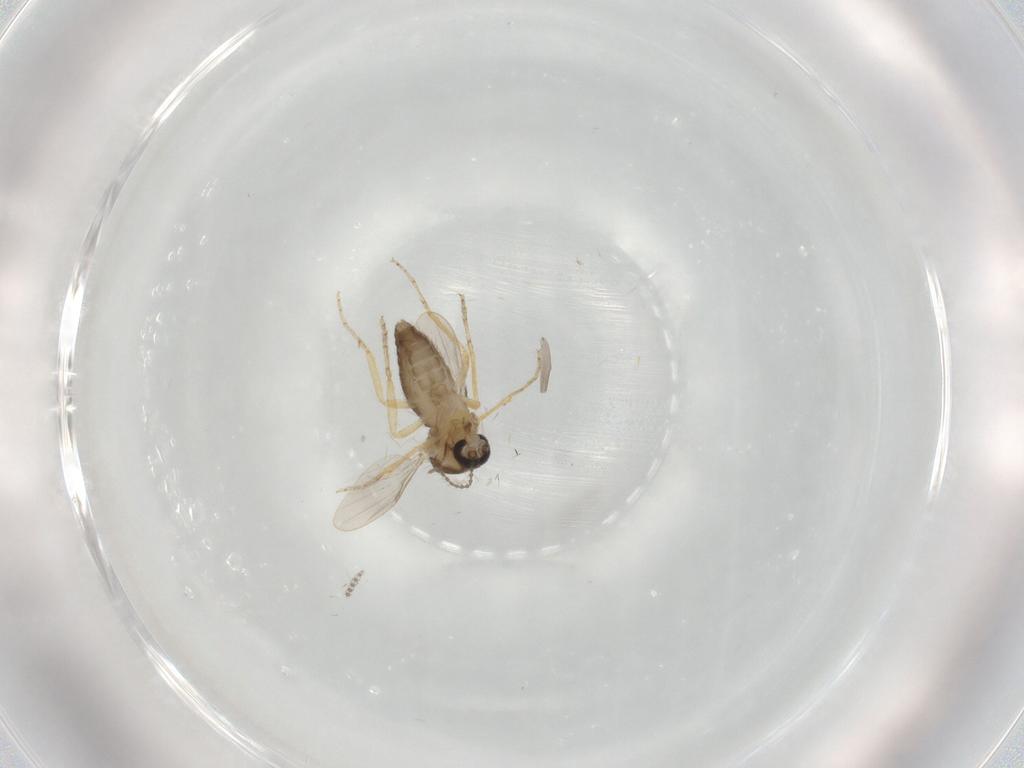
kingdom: Animalia
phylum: Arthropoda
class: Insecta
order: Diptera
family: Ceratopogonidae
